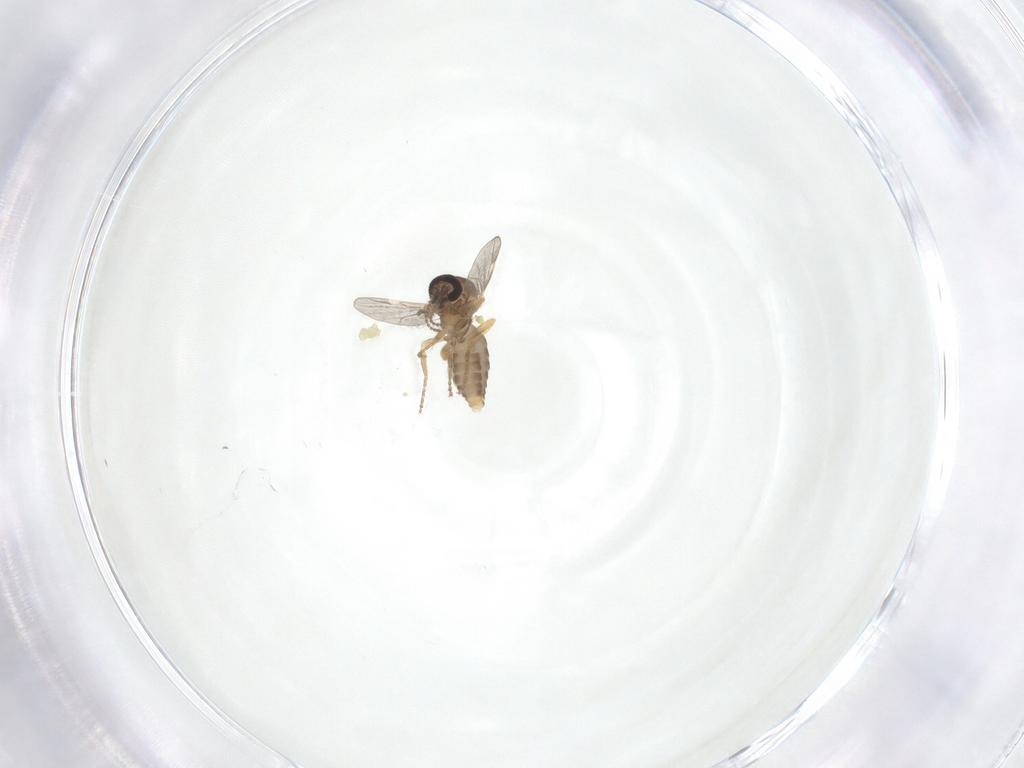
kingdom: Animalia
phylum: Arthropoda
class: Insecta
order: Diptera
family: Ceratopogonidae
